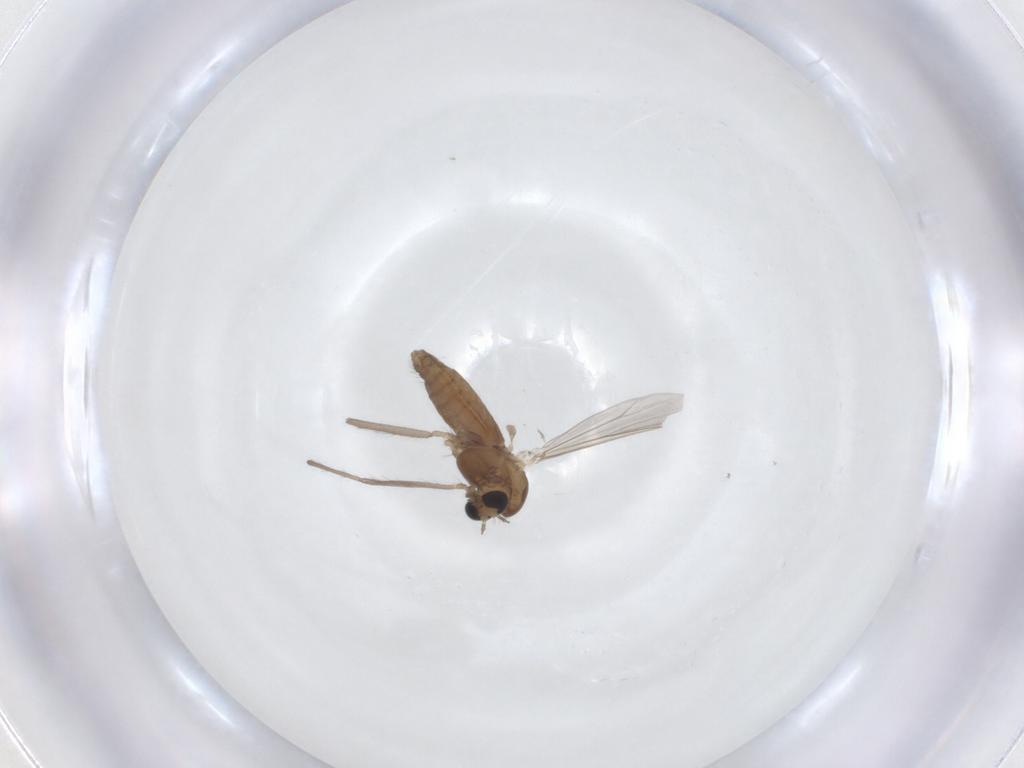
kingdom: Animalia
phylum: Arthropoda
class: Insecta
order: Diptera
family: Chironomidae
